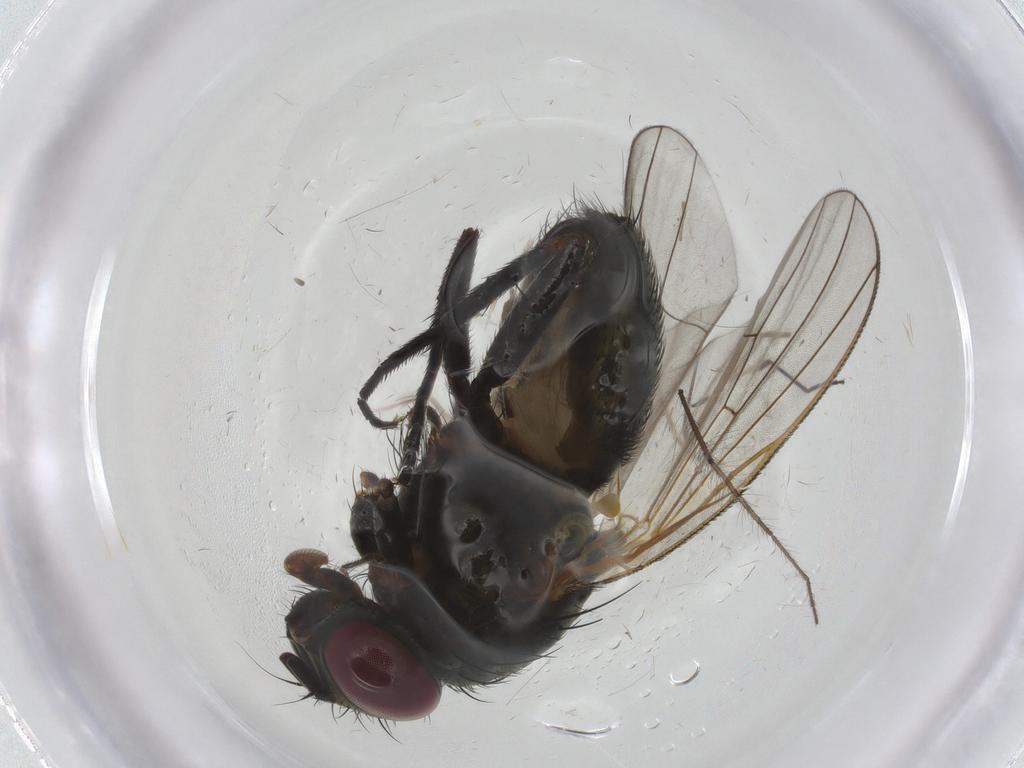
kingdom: Animalia
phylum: Arthropoda
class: Insecta
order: Diptera
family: Fannia
